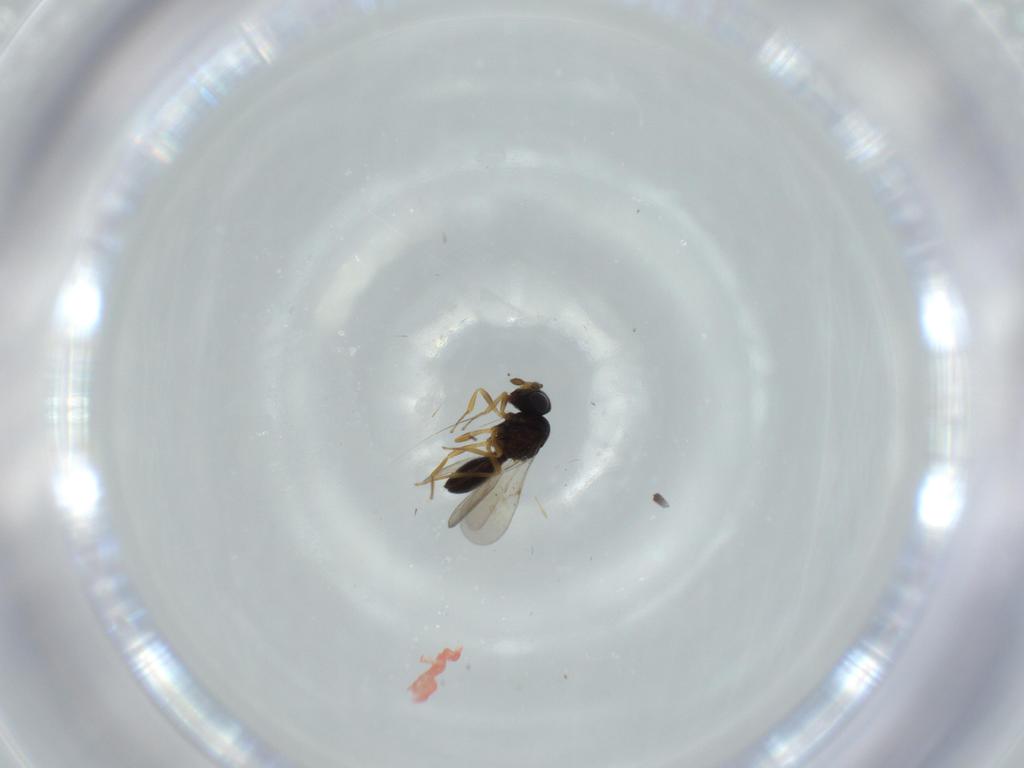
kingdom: Animalia
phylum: Arthropoda
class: Insecta
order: Hymenoptera
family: Scelionidae
